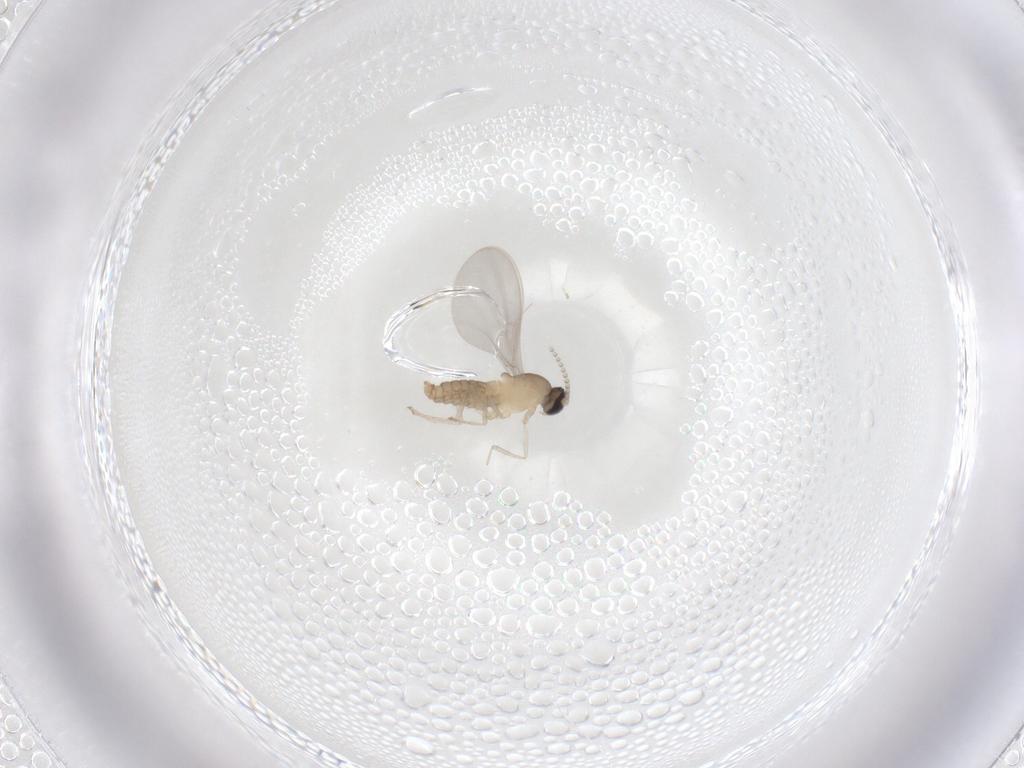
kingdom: Animalia
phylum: Arthropoda
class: Insecta
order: Diptera
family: Cecidomyiidae
